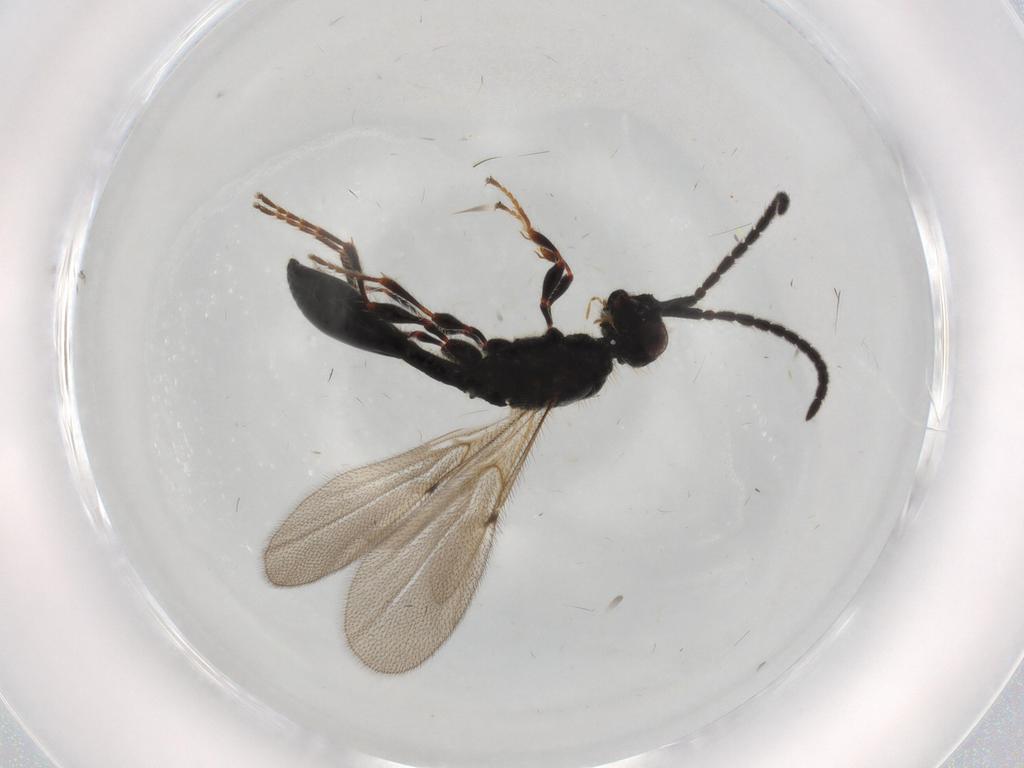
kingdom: Animalia
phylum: Arthropoda
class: Insecta
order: Hymenoptera
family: Diapriidae
